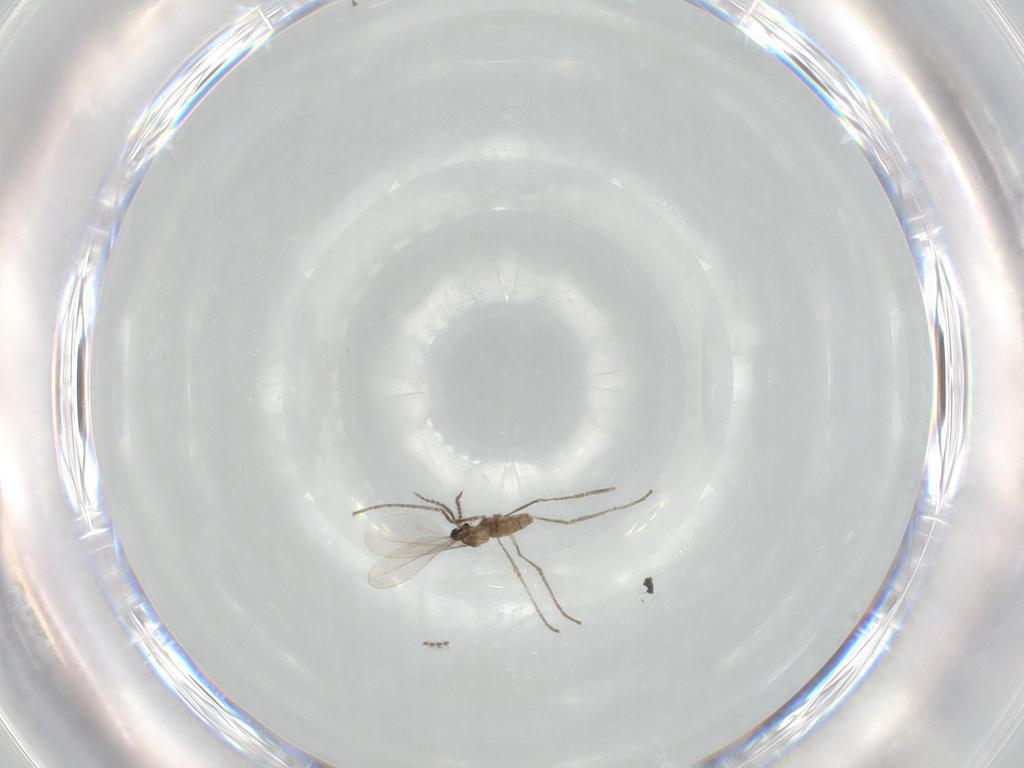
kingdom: Animalia
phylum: Arthropoda
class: Insecta
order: Diptera
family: Cecidomyiidae
